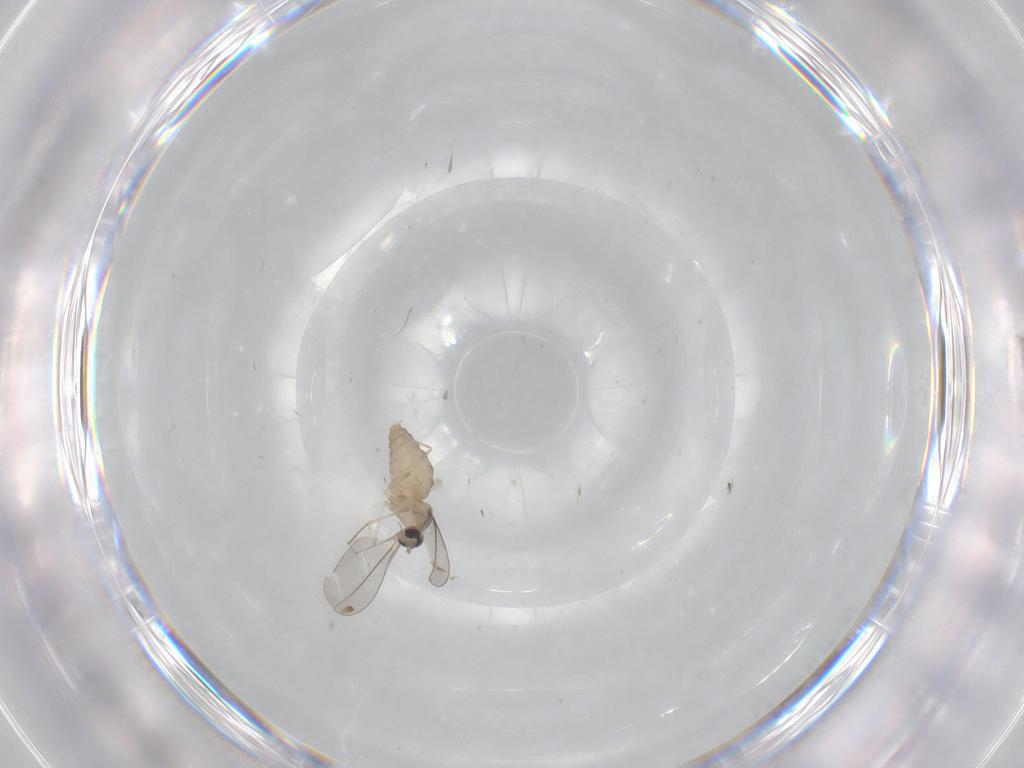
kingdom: Animalia
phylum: Arthropoda
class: Insecta
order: Diptera
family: Cecidomyiidae
